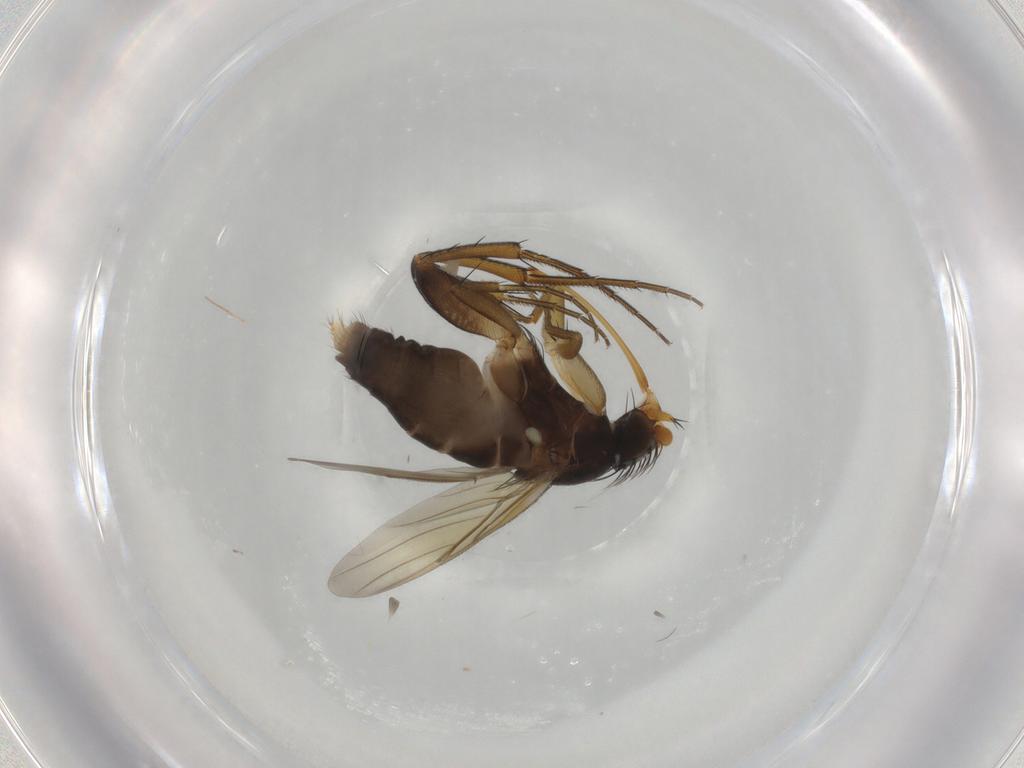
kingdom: Animalia
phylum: Arthropoda
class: Insecta
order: Diptera
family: Phoridae
